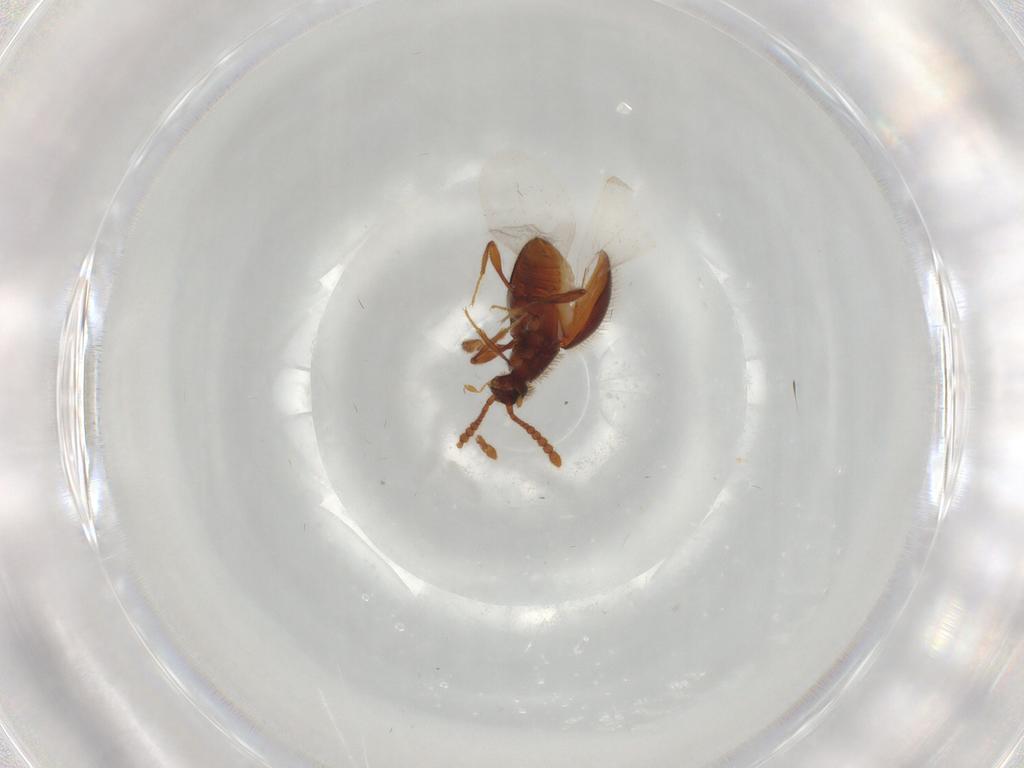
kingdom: Animalia
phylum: Arthropoda
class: Insecta
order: Coleoptera
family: Staphylinidae
